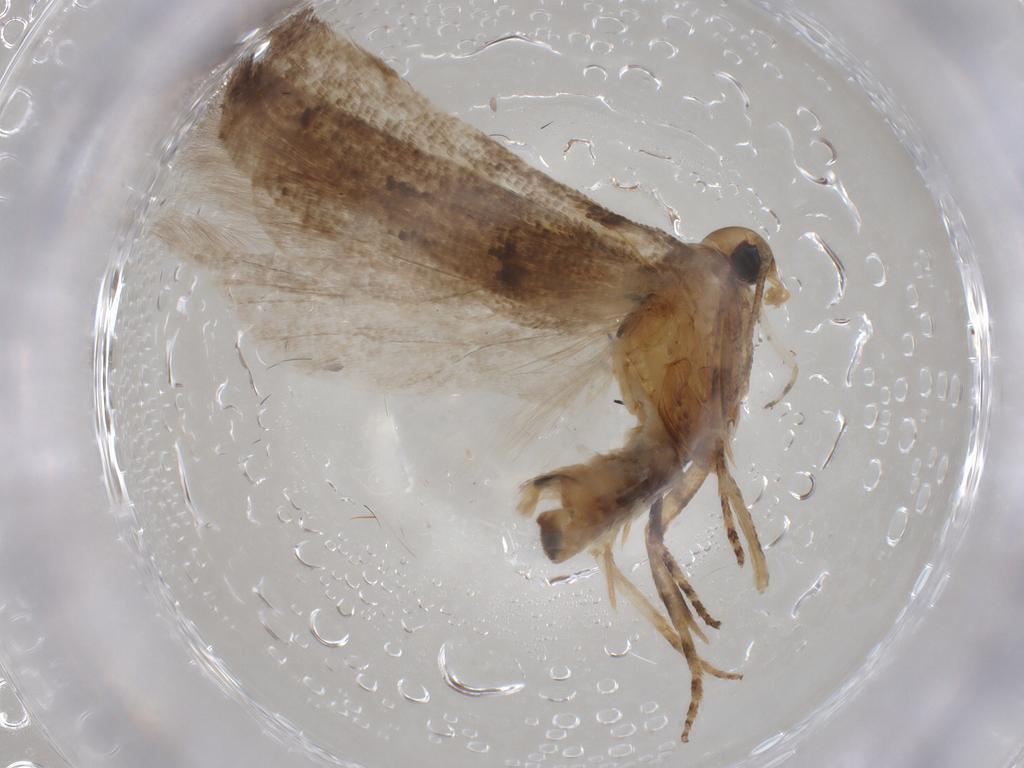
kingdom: Animalia
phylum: Arthropoda
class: Insecta
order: Lepidoptera
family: Gelechiidae
